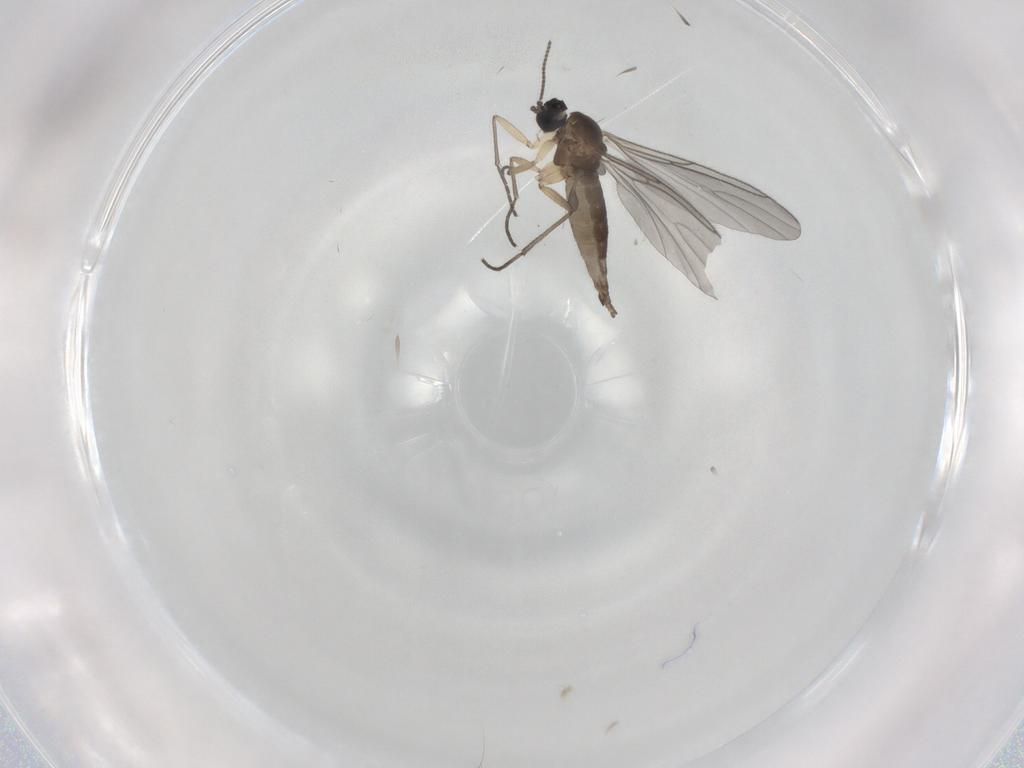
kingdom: Animalia
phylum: Arthropoda
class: Insecta
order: Diptera
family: Sciaridae
